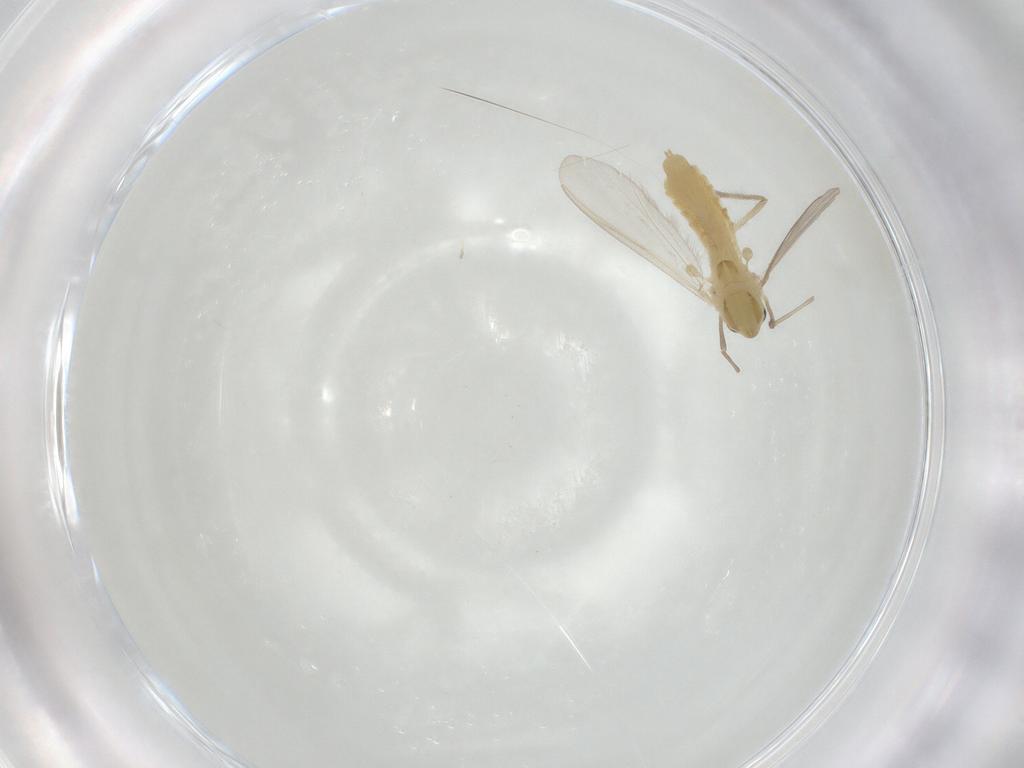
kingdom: Animalia
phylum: Arthropoda
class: Insecta
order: Diptera
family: Chironomidae
